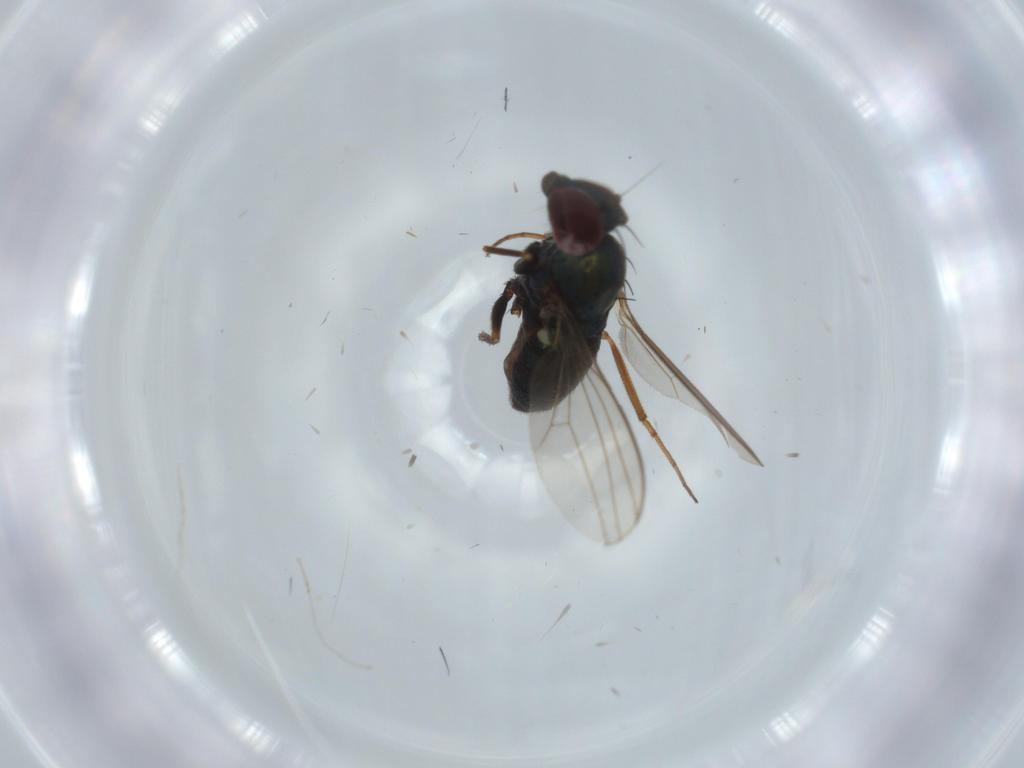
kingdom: Animalia
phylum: Arthropoda
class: Insecta
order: Diptera
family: Dolichopodidae
